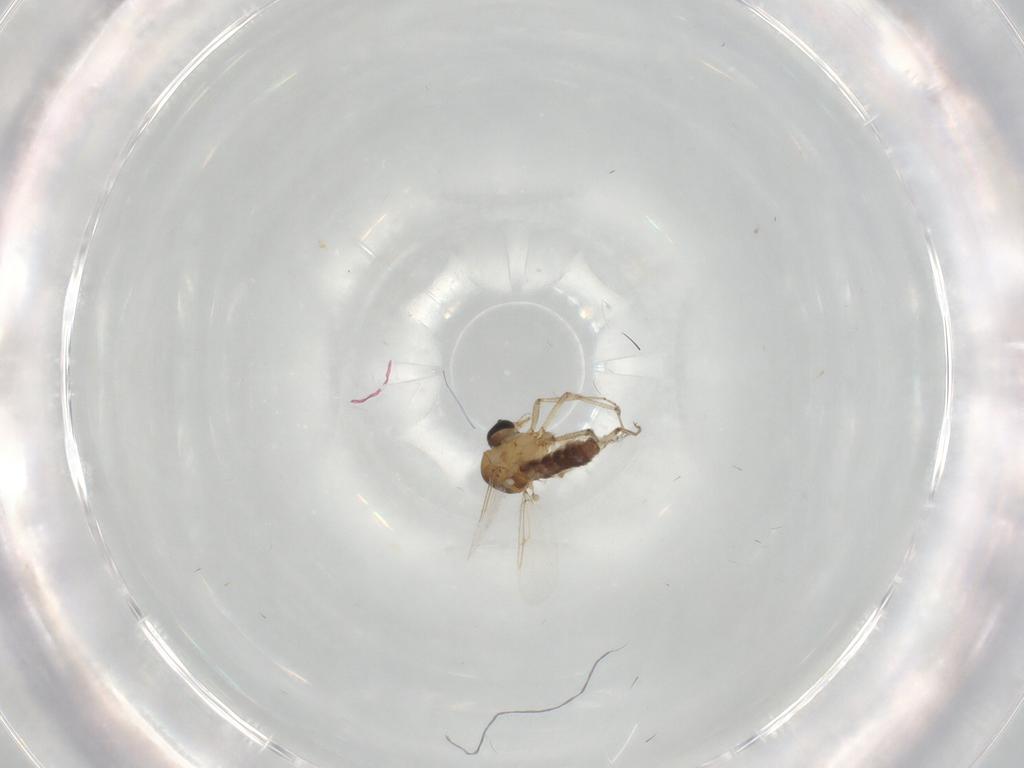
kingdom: Animalia
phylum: Arthropoda
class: Insecta
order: Diptera
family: Ceratopogonidae
